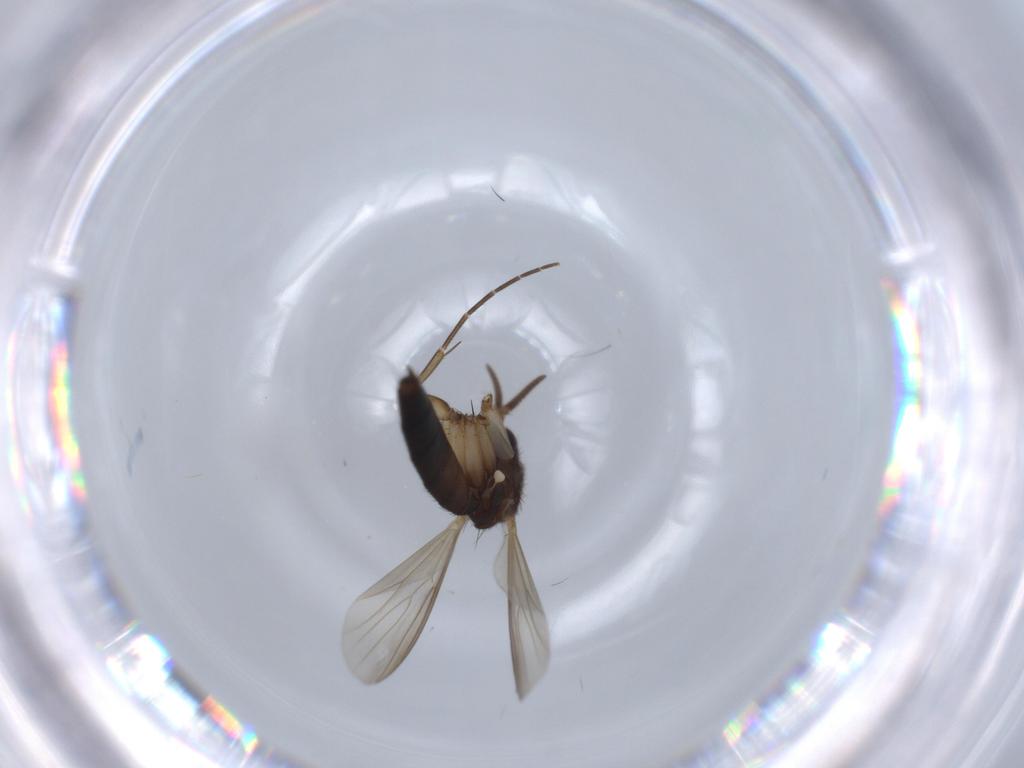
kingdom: Animalia
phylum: Arthropoda
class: Insecta
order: Diptera
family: Mycetophilidae
